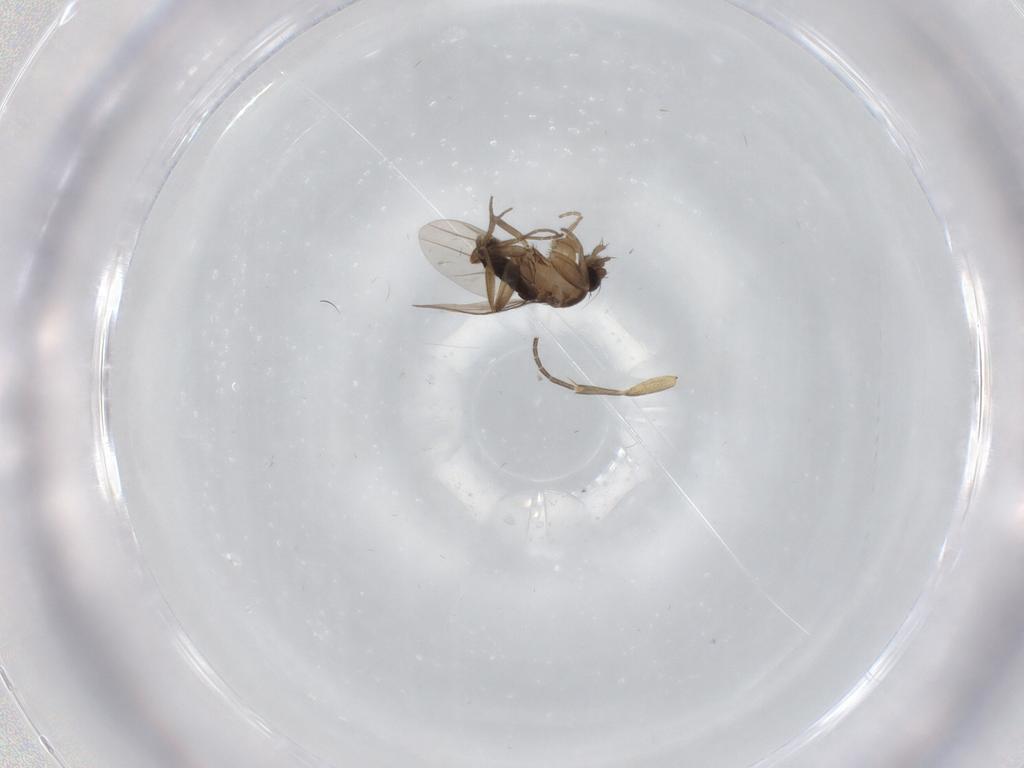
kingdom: Animalia
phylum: Arthropoda
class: Insecta
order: Diptera
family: Phoridae
